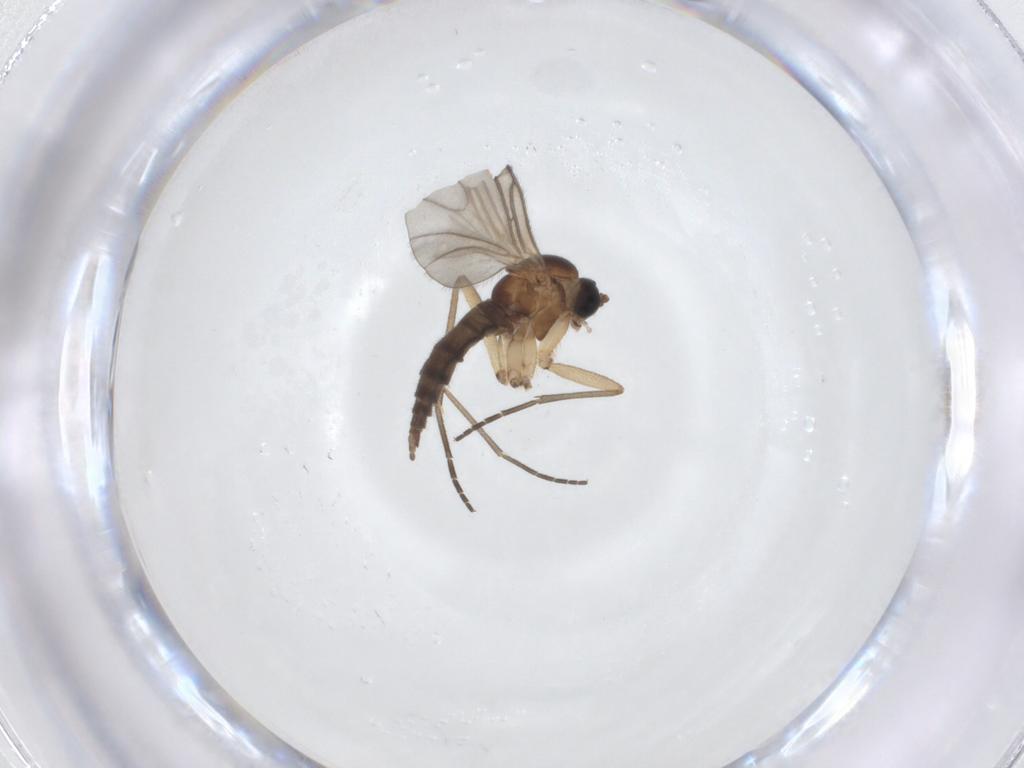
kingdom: Animalia
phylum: Arthropoda
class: Insecta
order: Diptera
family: Sciaridae
